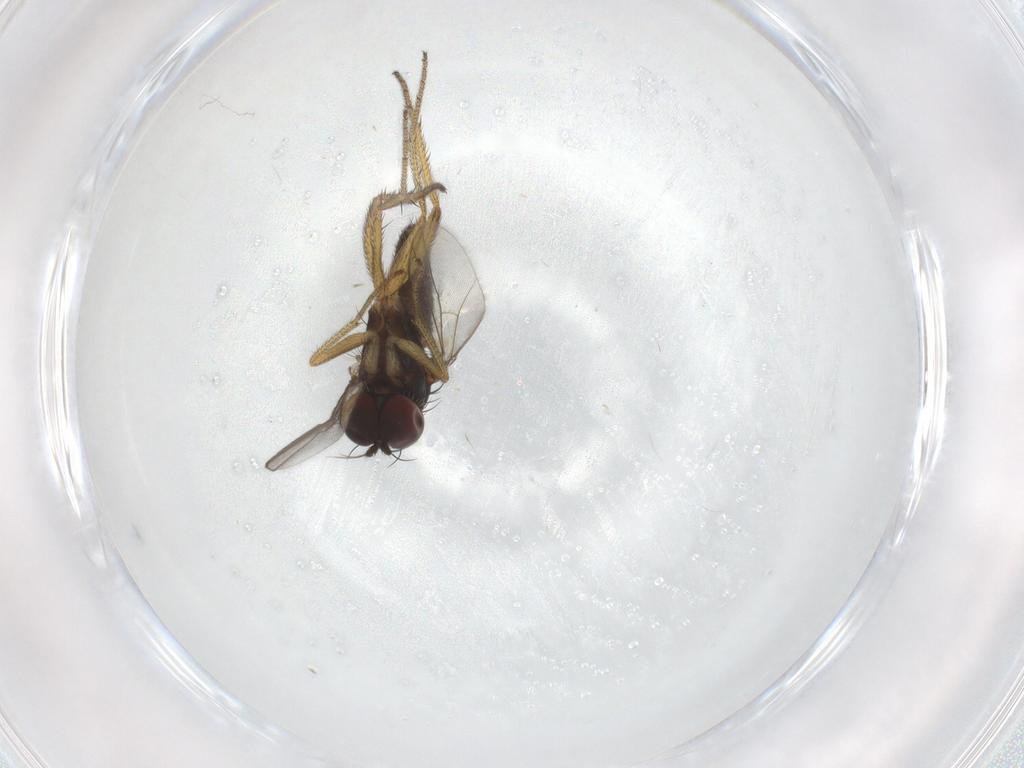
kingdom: Animalia
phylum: Arthropoda
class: Insecta
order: Diptera
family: Dolichopodidae
